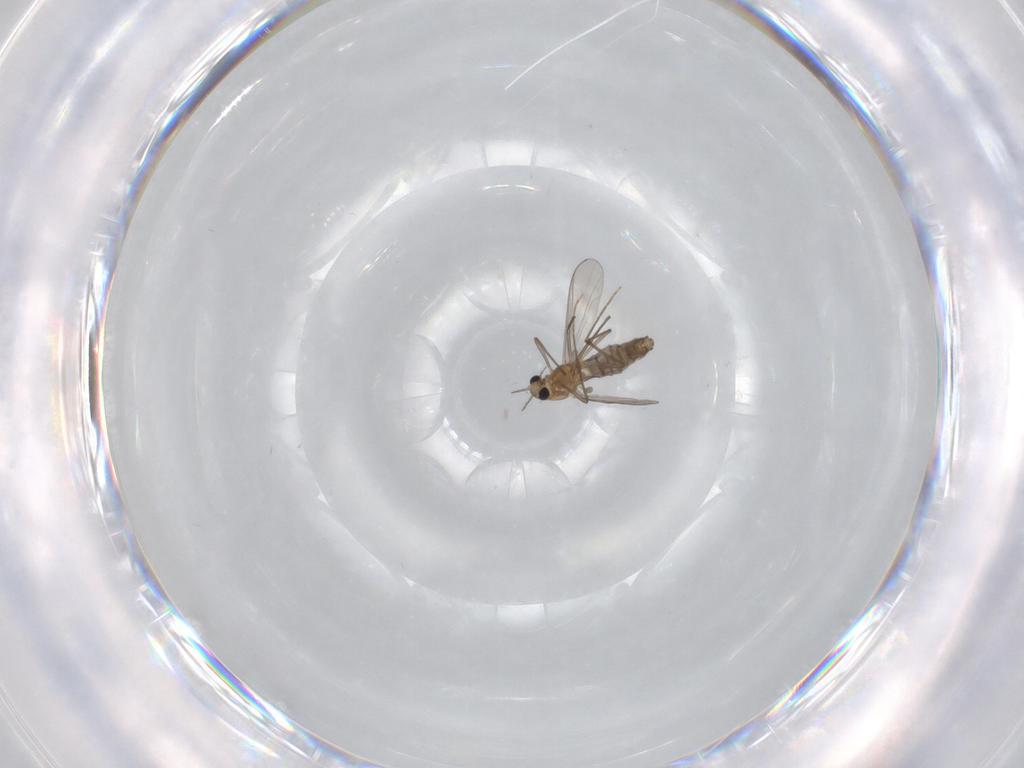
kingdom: Animalia
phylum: Arthropoda
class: Insecta
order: Diptera
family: Chironomidae
